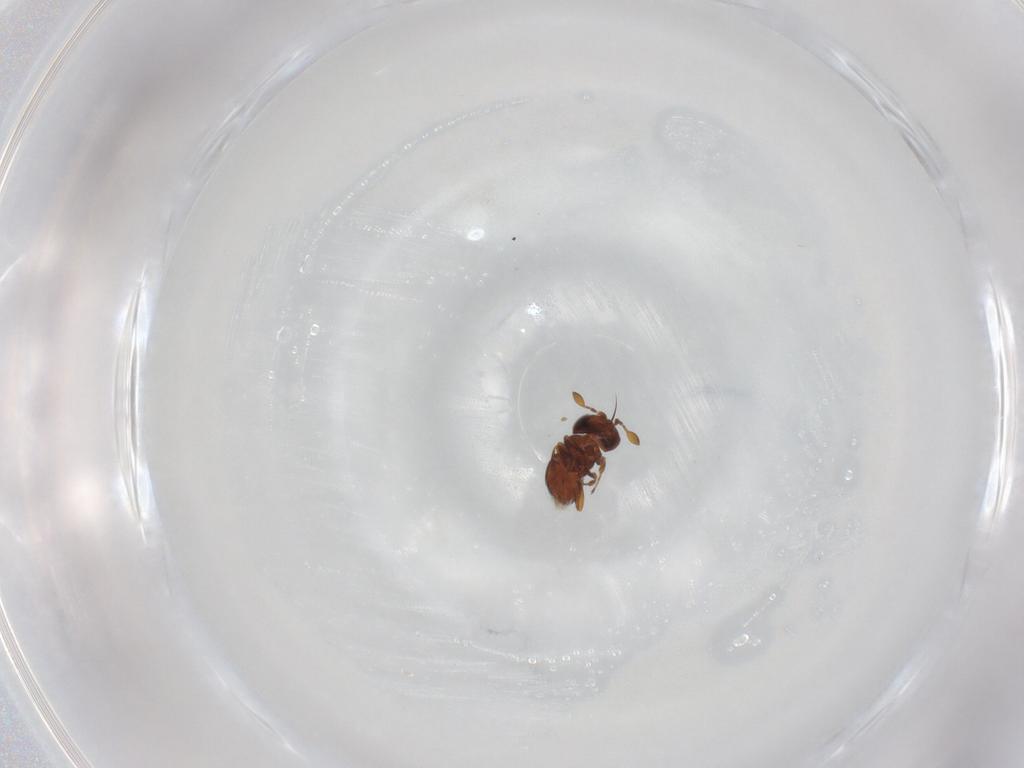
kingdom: Animalia
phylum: Arthropoda
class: Insecta
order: Hymenoptera
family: Scelionidae
